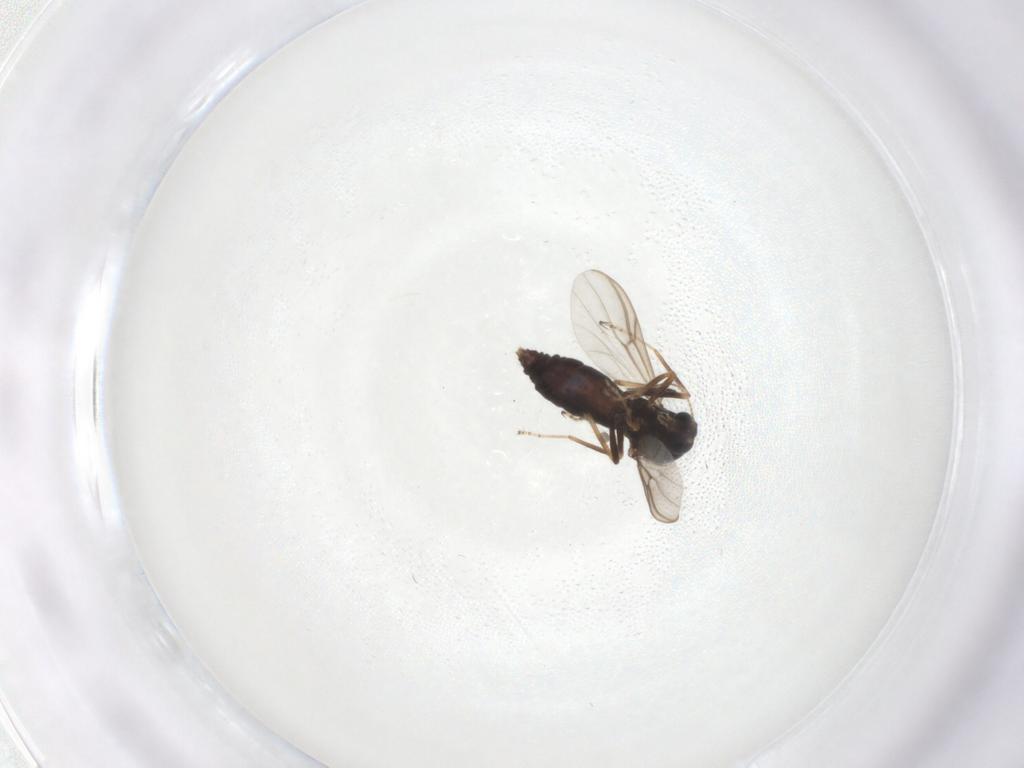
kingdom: Animalia
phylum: Arthropoda
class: Insecta
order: Diptera
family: Ceratopogonidae
